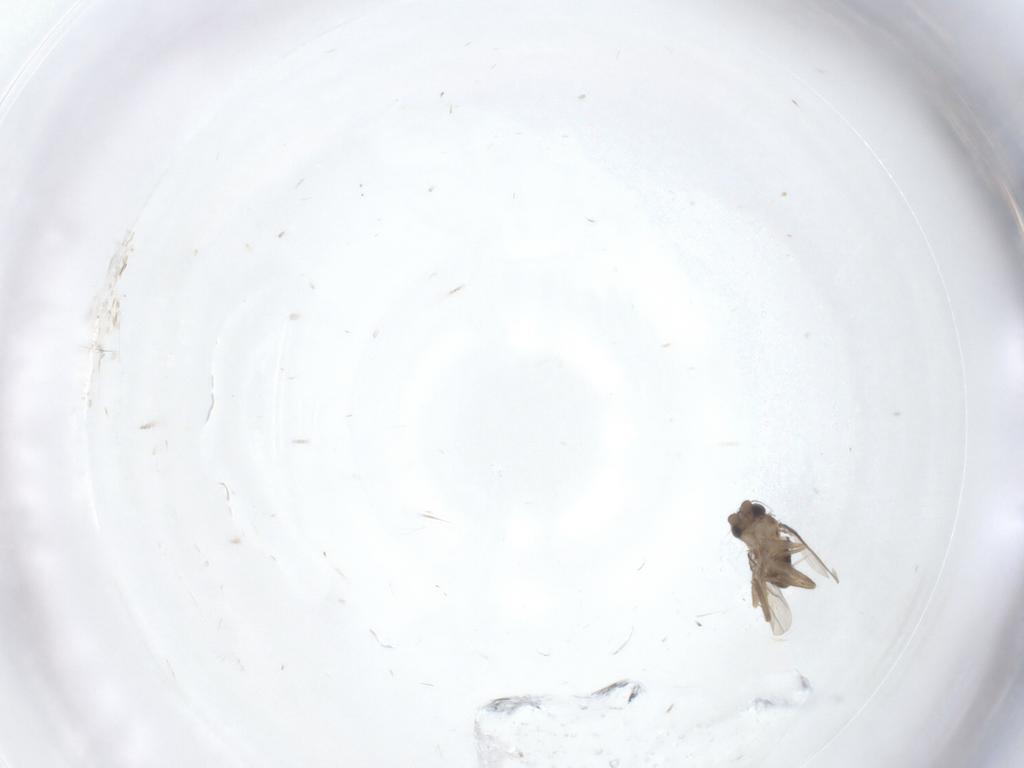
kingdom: Animalia
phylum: Arthropoda
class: Insecta
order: Diptera
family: Phoridae
